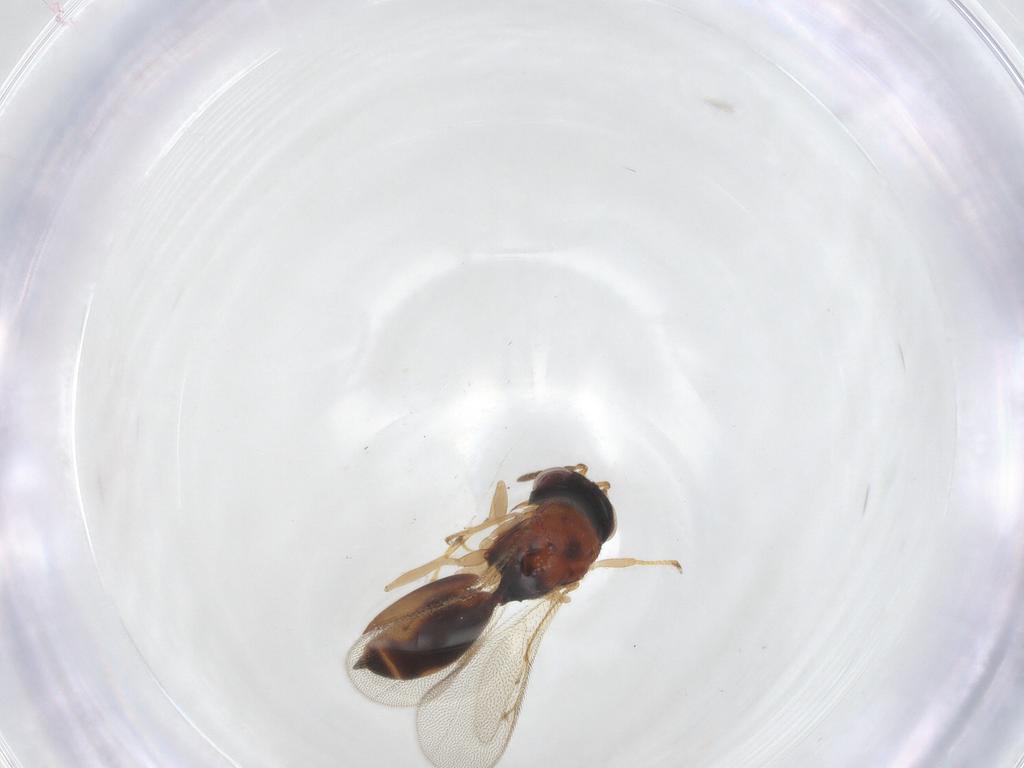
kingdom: Animalia
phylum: Arthropoda
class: Insecta
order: Hymenoptera
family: Eurytomidae
